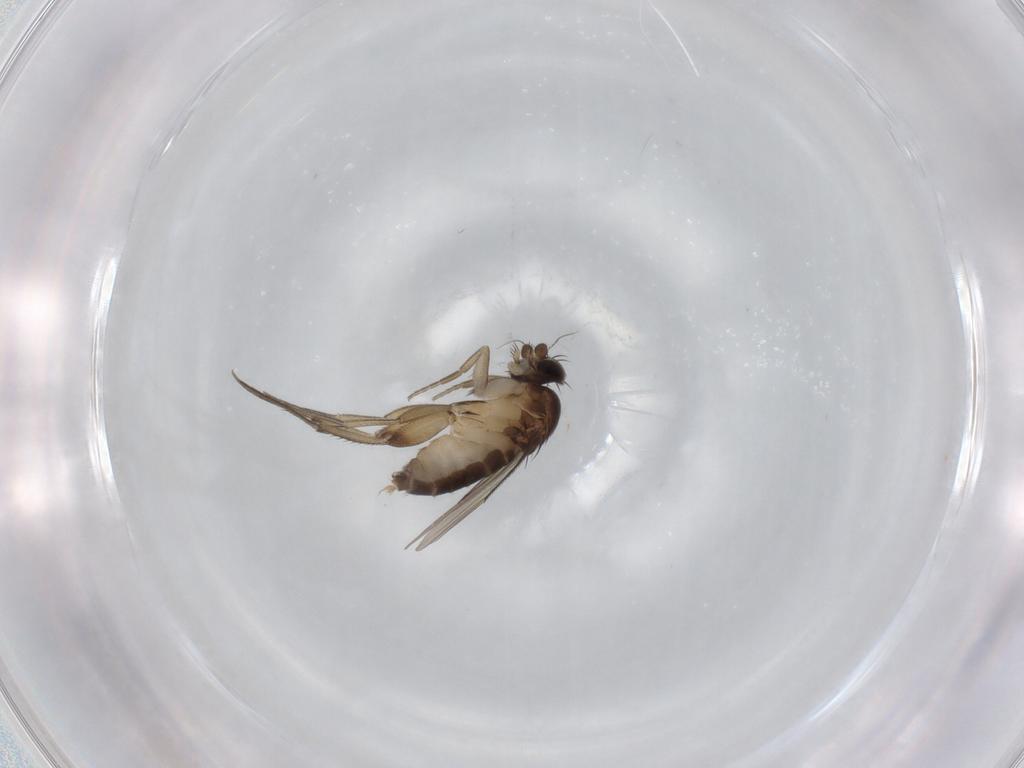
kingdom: Animalia
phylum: Arthropoda
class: Insecta
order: Diptera
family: Phoridae
